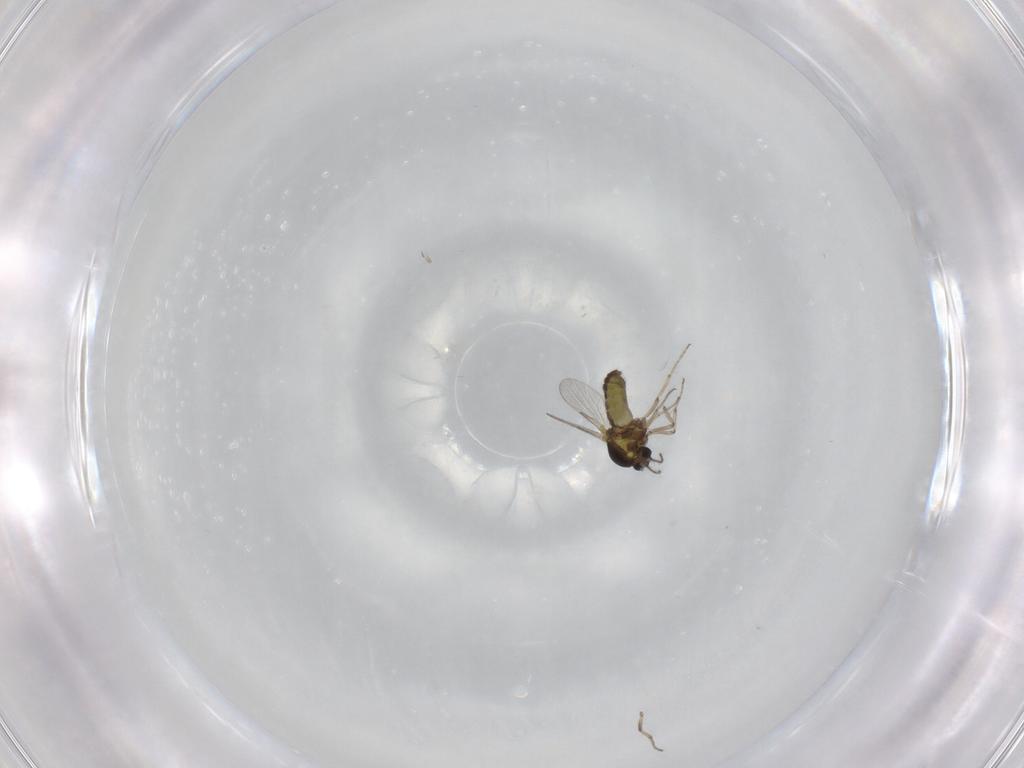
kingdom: Animalia
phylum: Arthropoda
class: Insecta
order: Diptera
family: Ceratopogonidae
